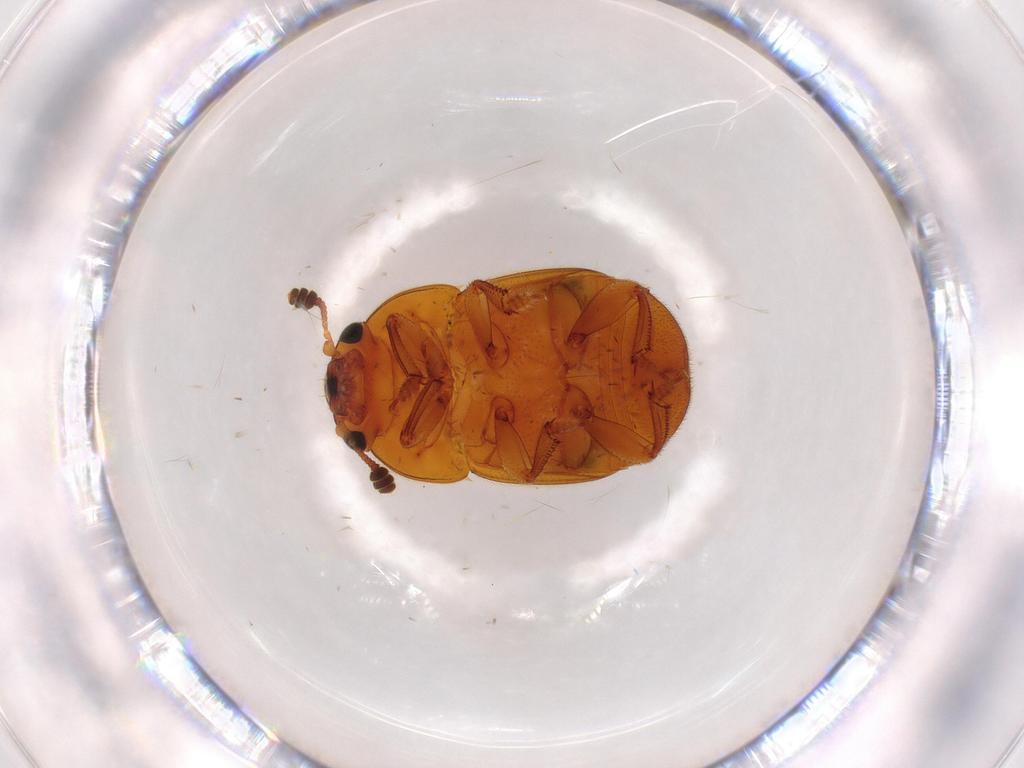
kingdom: Animalia
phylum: Arthropoda
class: Insecta
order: Coleoptera
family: Nitidulidae
